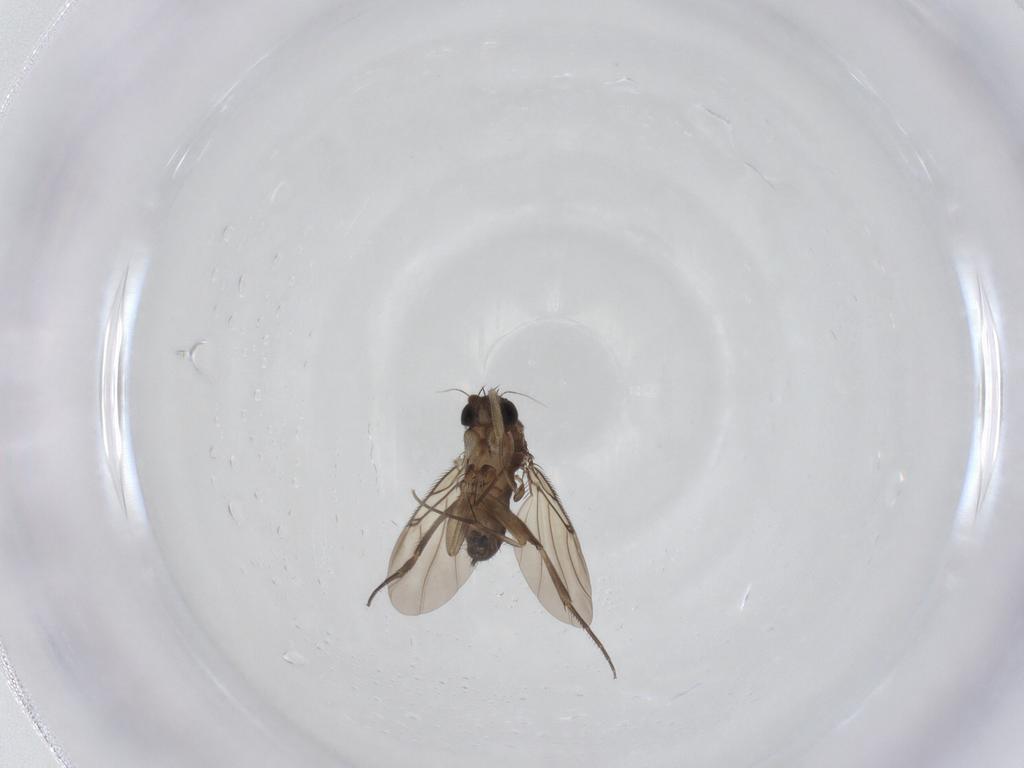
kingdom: Animalia
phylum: Arthropoda
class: Insecta
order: Diptera
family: Phoridae
